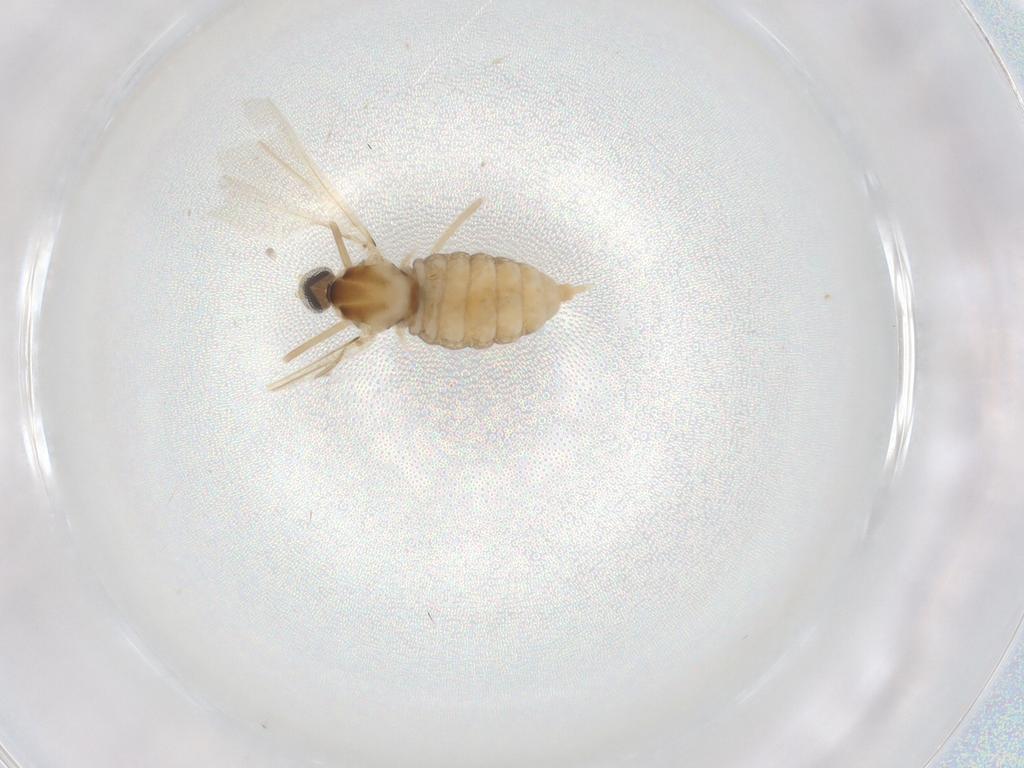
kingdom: Animalia
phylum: Arthropoda
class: Insecta
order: Diptera
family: Cecidomyiidae
